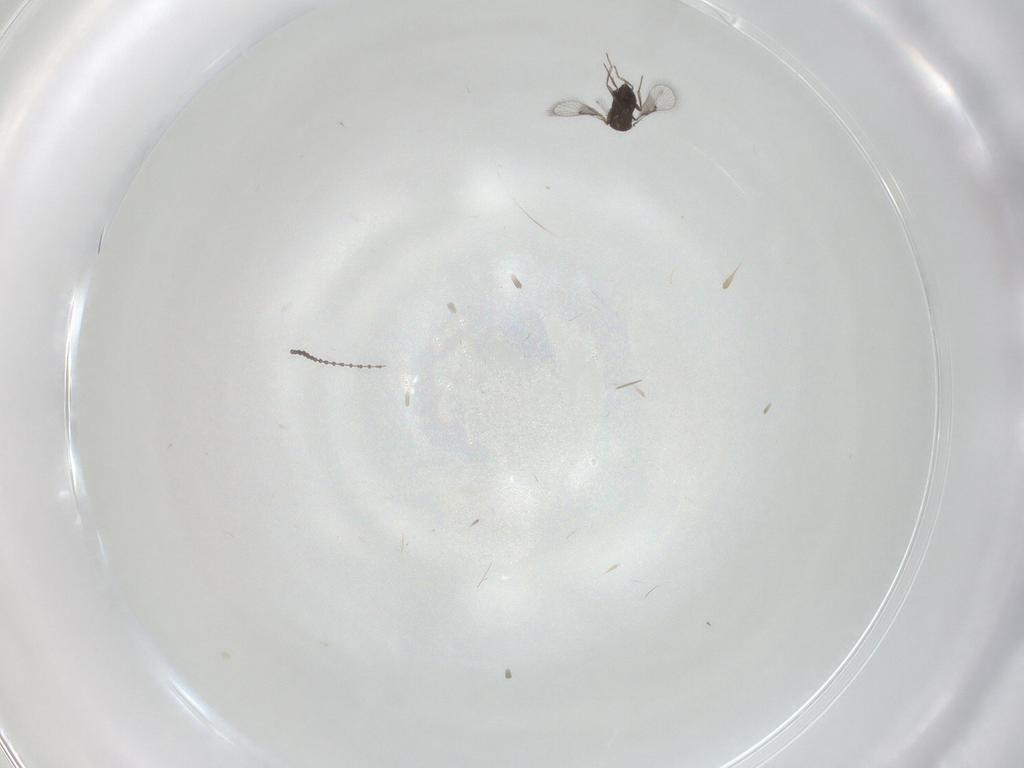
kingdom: Animalia
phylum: Arthropoda
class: Insecta
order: Hymenoptera
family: Trichogrammatidae
